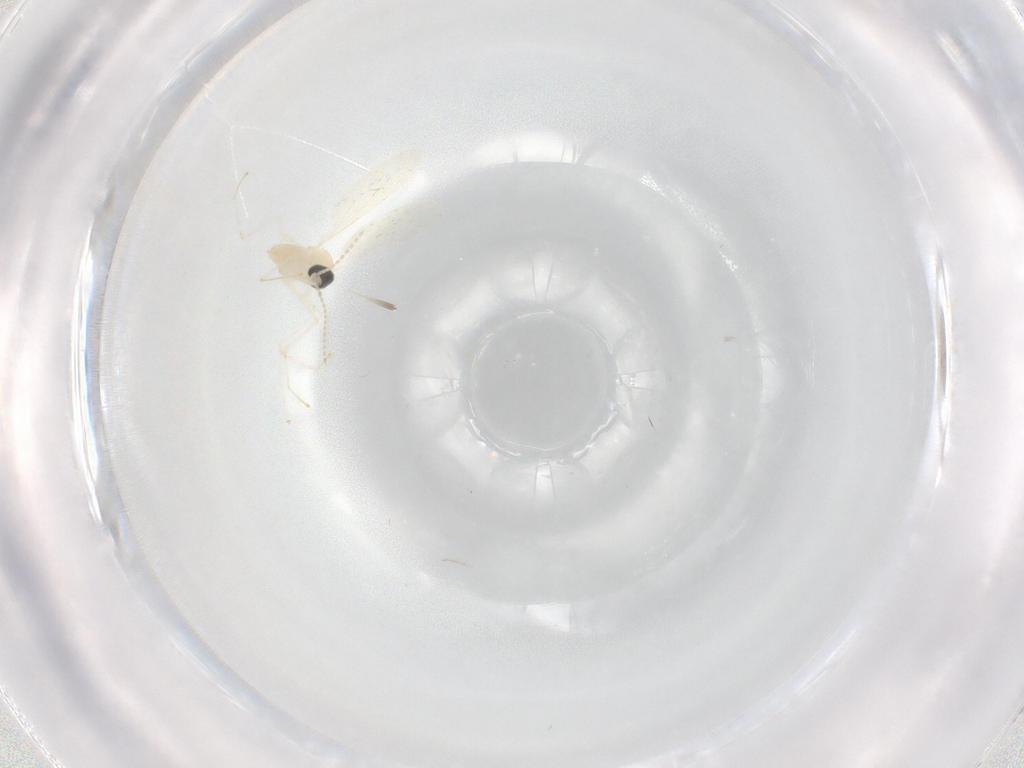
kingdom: Animalia
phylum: Arthropoda
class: Insecta
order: Diptera
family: Cecidomyiidae
